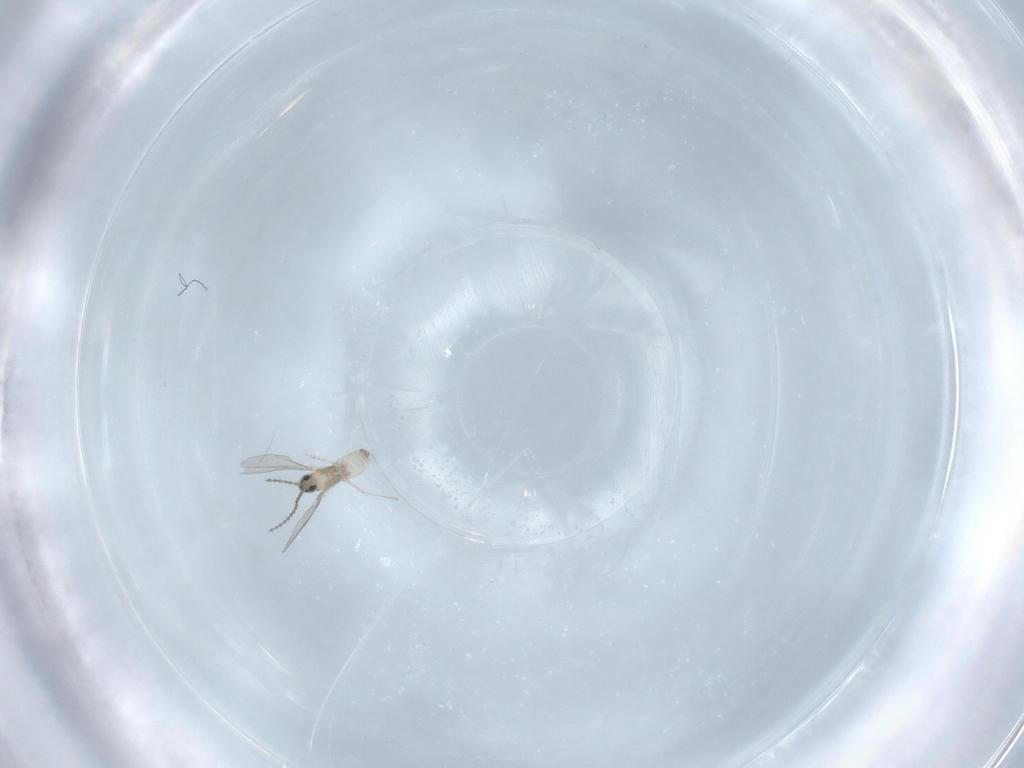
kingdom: Animalia
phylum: Arthropoda
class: Insecta
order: Diptera
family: Cecidomyiidae
